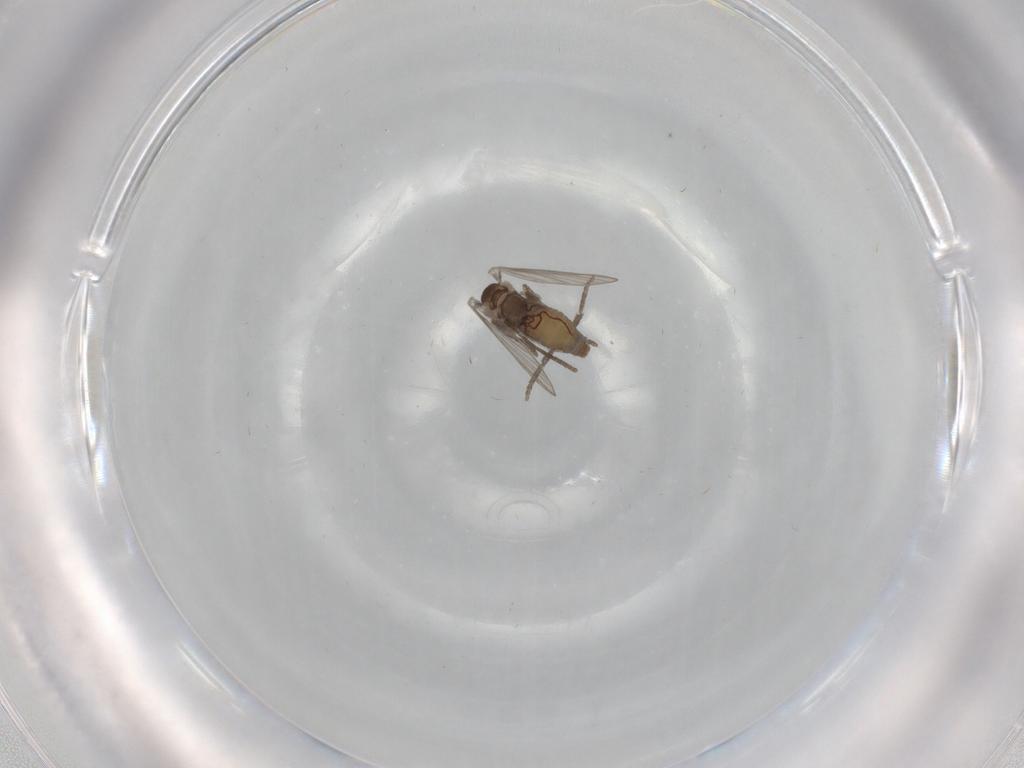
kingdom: Animalia
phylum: Arthropoda
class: Insecta
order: Diptera
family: Psychodidae
